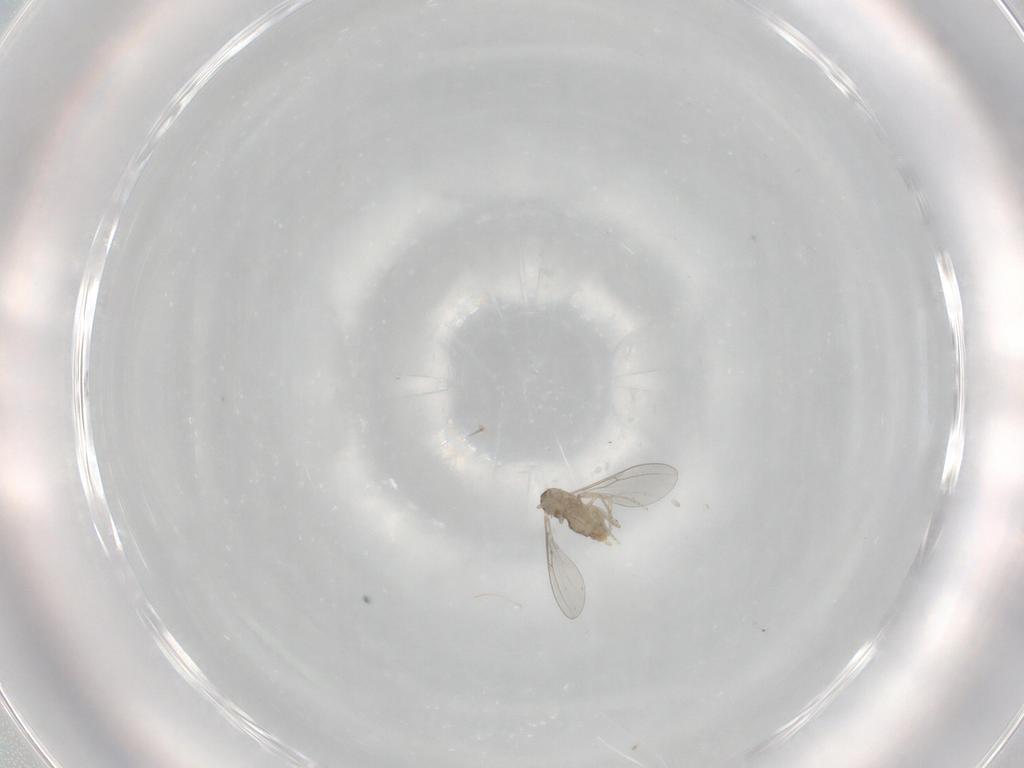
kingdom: Animalia
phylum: Arthropoda
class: Insecta
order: Diptera
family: Cecidomyiidae
